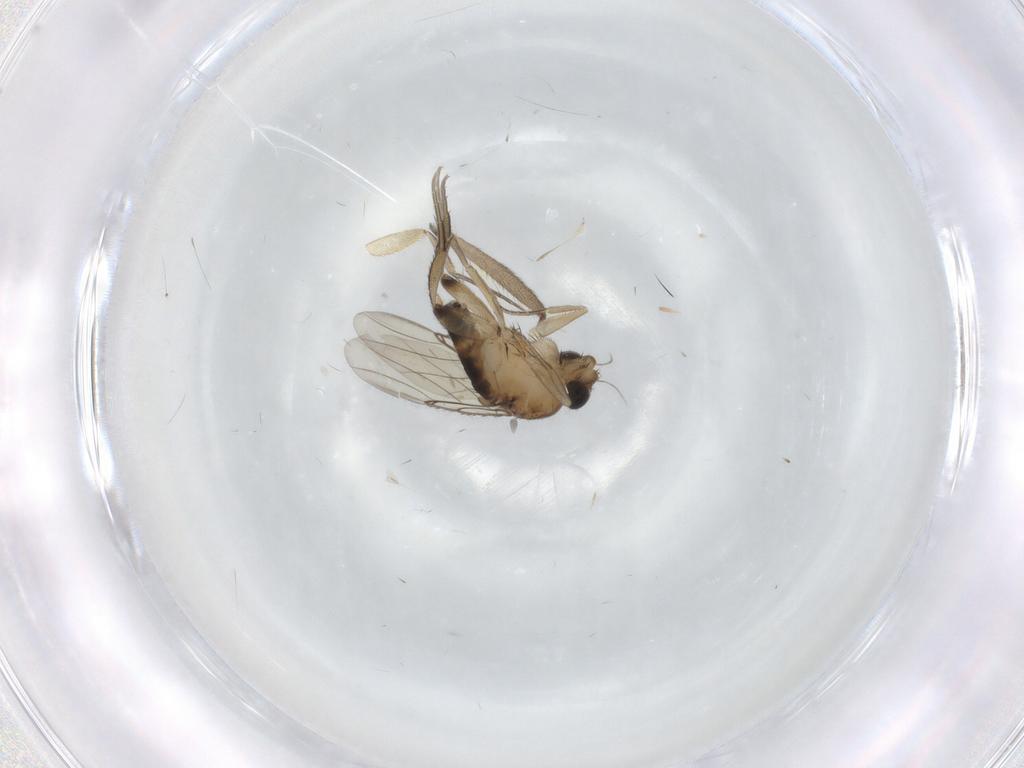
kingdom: Animalia
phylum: Arthropoda
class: Insecta
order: Diptera
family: Phoridae
